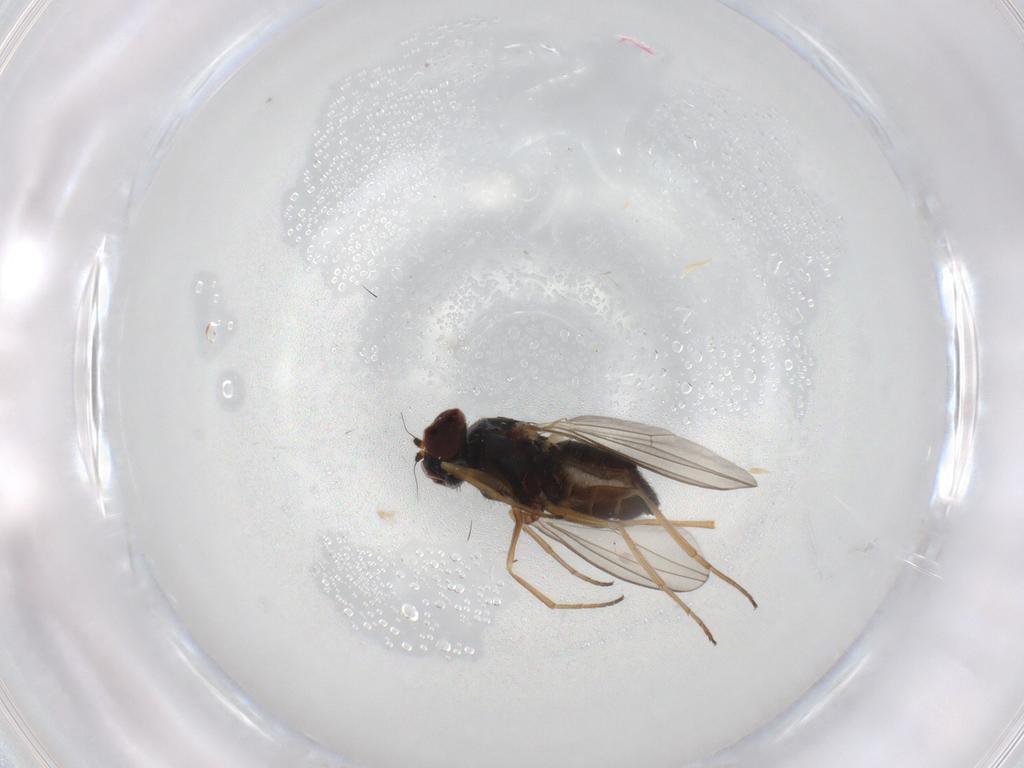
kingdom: Animalia
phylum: Arthropoda
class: Insecta
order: Diptera
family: Dolichopodidae
